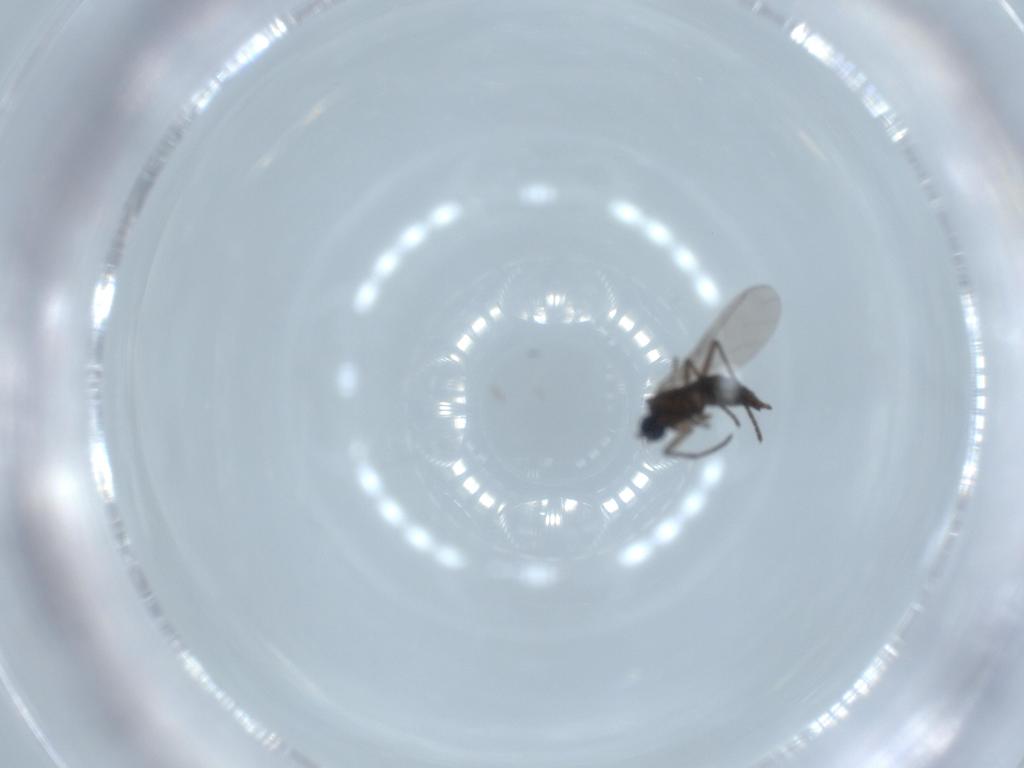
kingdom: Animalia
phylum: Arthropoda
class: Insecta
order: Diptera
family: Sciaridae
